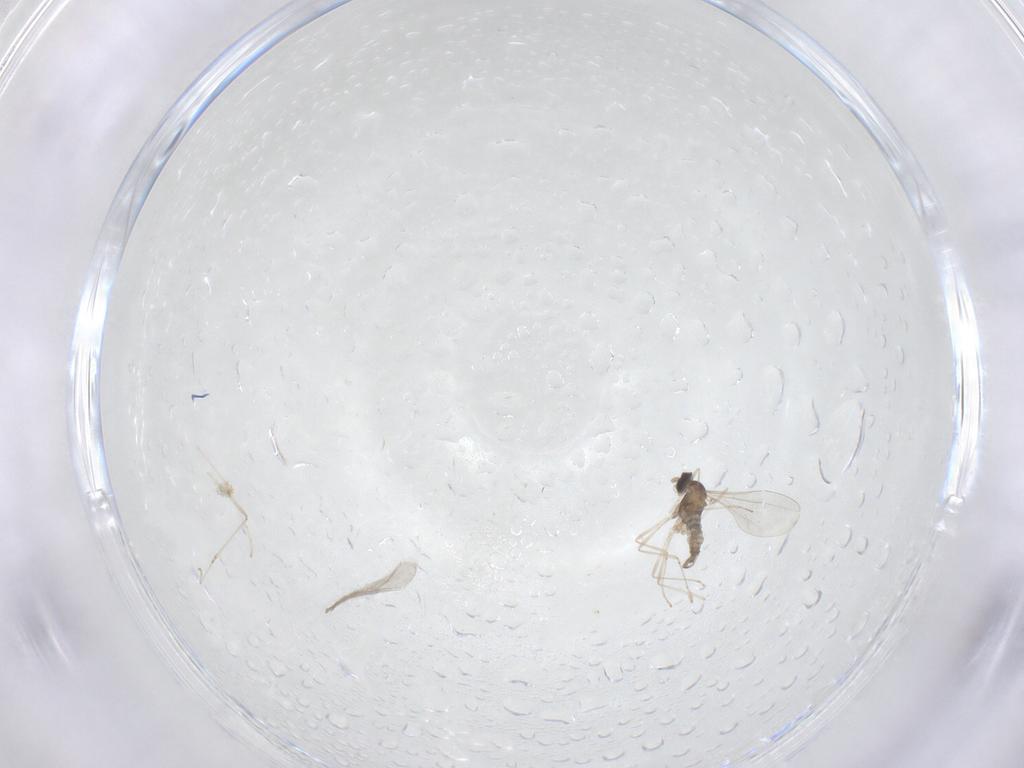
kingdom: Animalia
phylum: Arthropoda
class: Insecta
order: Diptera
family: Cecidomyiidae
